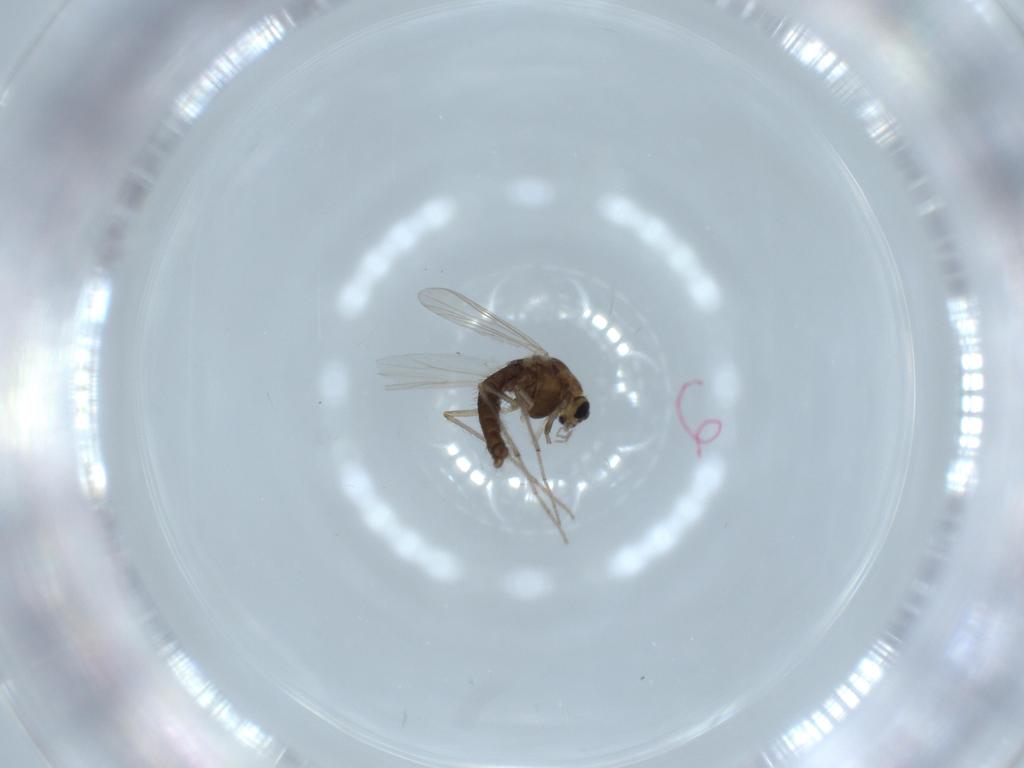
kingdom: Animalia
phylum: Arthropoda
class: Insecta
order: Diptera
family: Chironomidae
